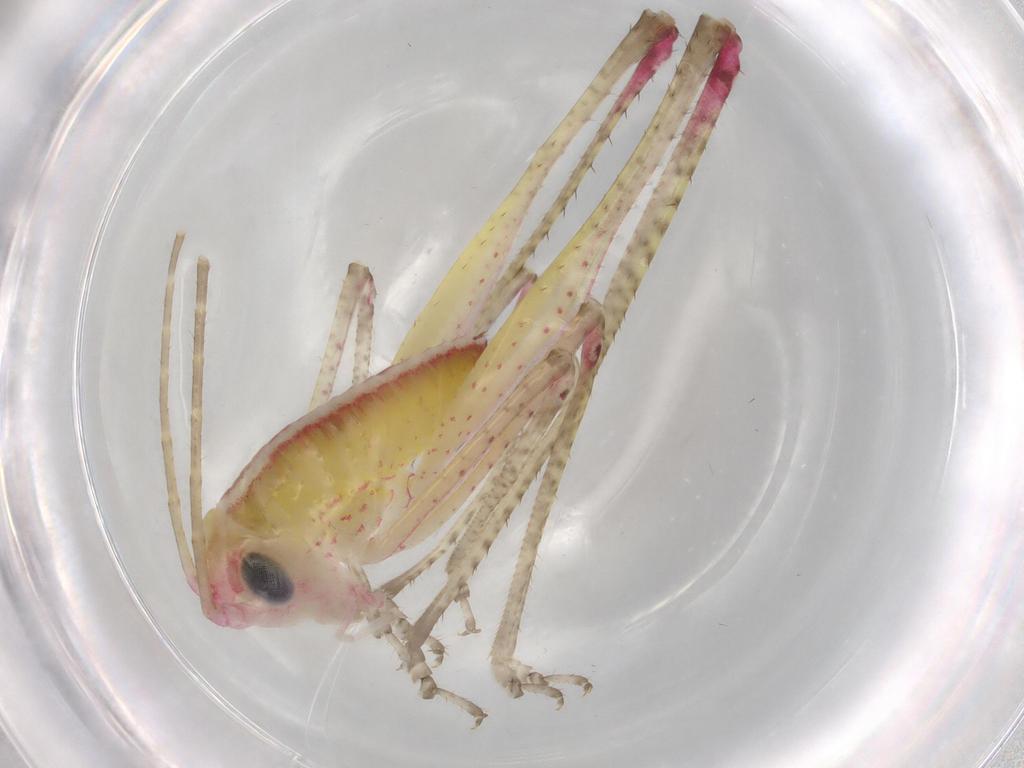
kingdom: Animalia
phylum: Arthropoda
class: Insecta
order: Orthoptera
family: Tettigoniidae
